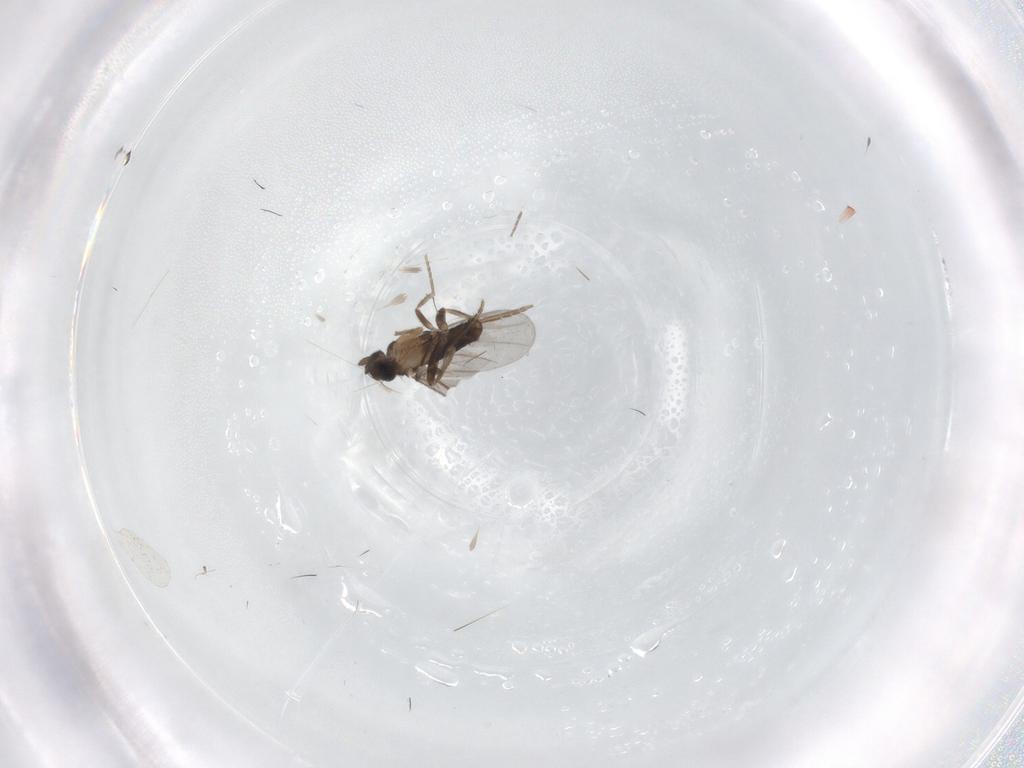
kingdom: Animalia
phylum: Arthropoda
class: Insecta
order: Diptera
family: Cecidomyiidae
